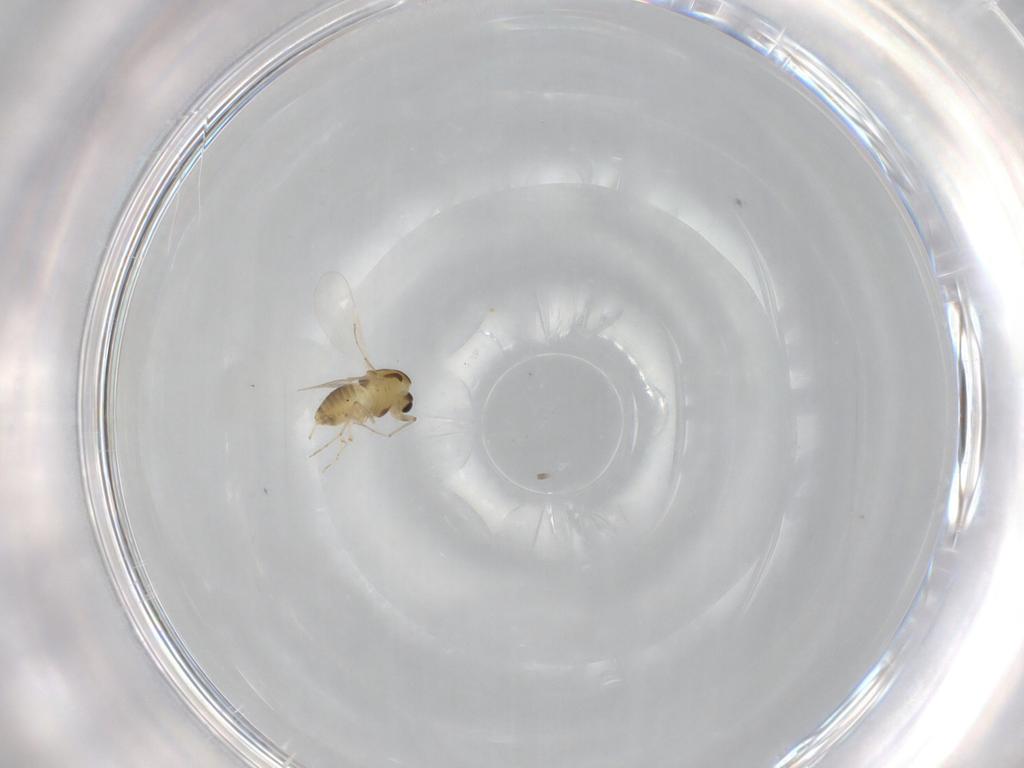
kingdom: Animalia
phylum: Arthropoda
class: Insecta
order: Diptera
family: Chironomidae
